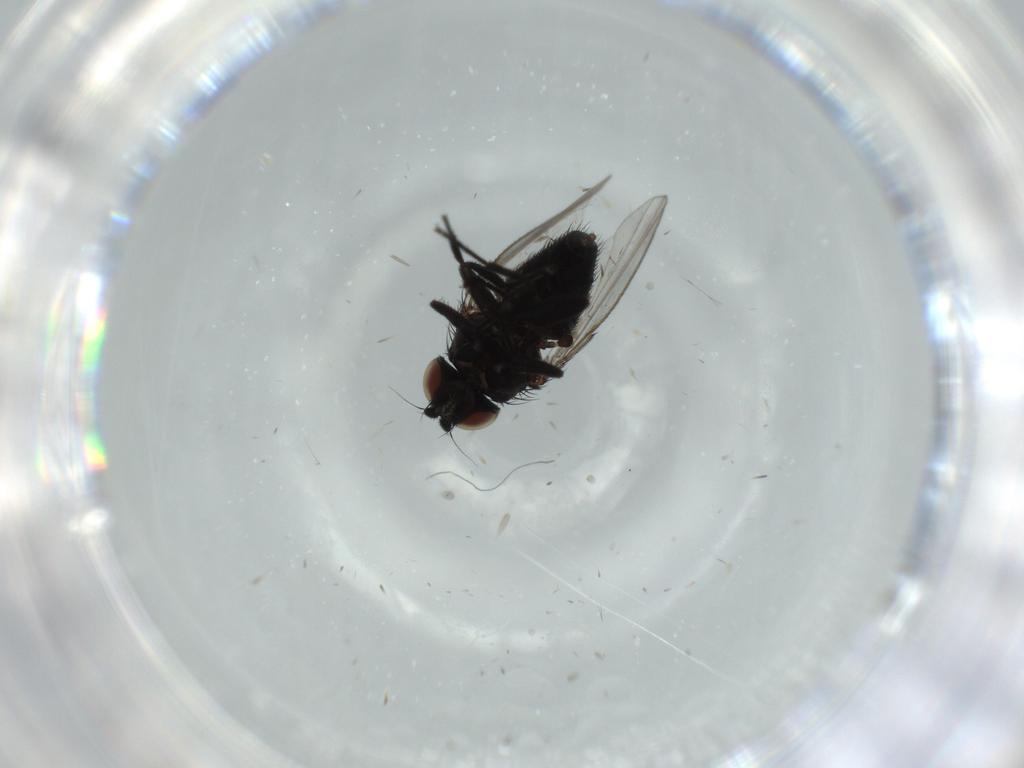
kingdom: Animalia
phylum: Arthropoda
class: Insecta
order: Diptera
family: Cecidomyiidae
